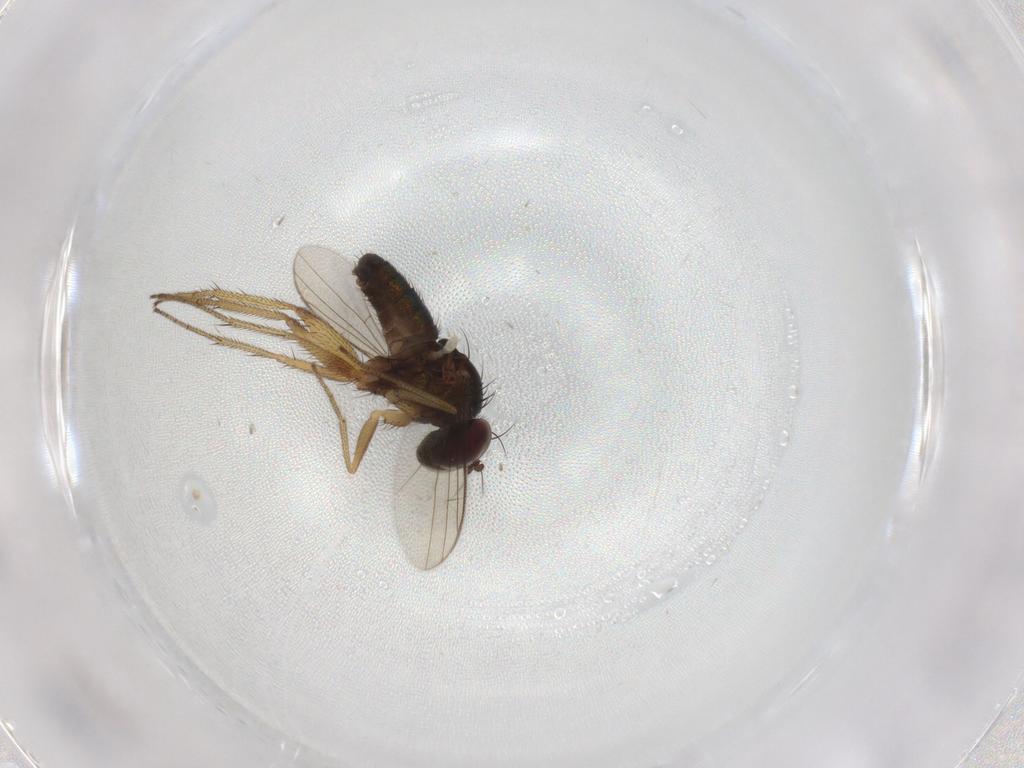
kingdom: Animalia
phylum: Arthropoda
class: Insecta
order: Diptera
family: Dolichopodidae
